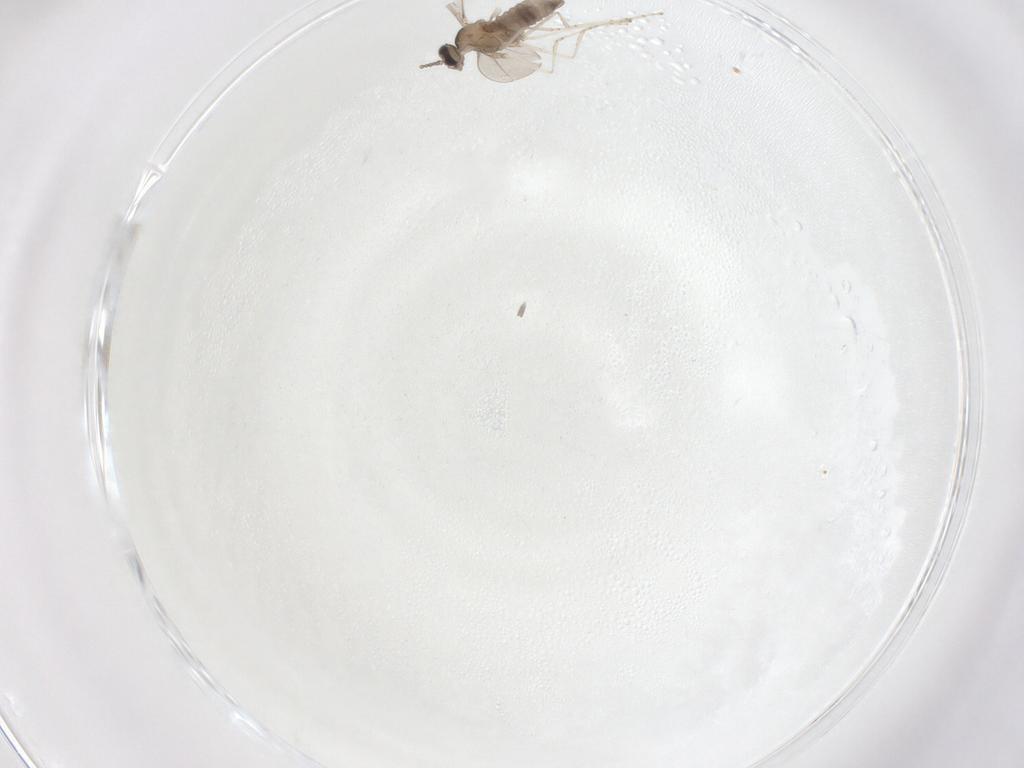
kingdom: Animalia
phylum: Arthropoda
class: Insecta
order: Diptera
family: Cecidomyiidae
